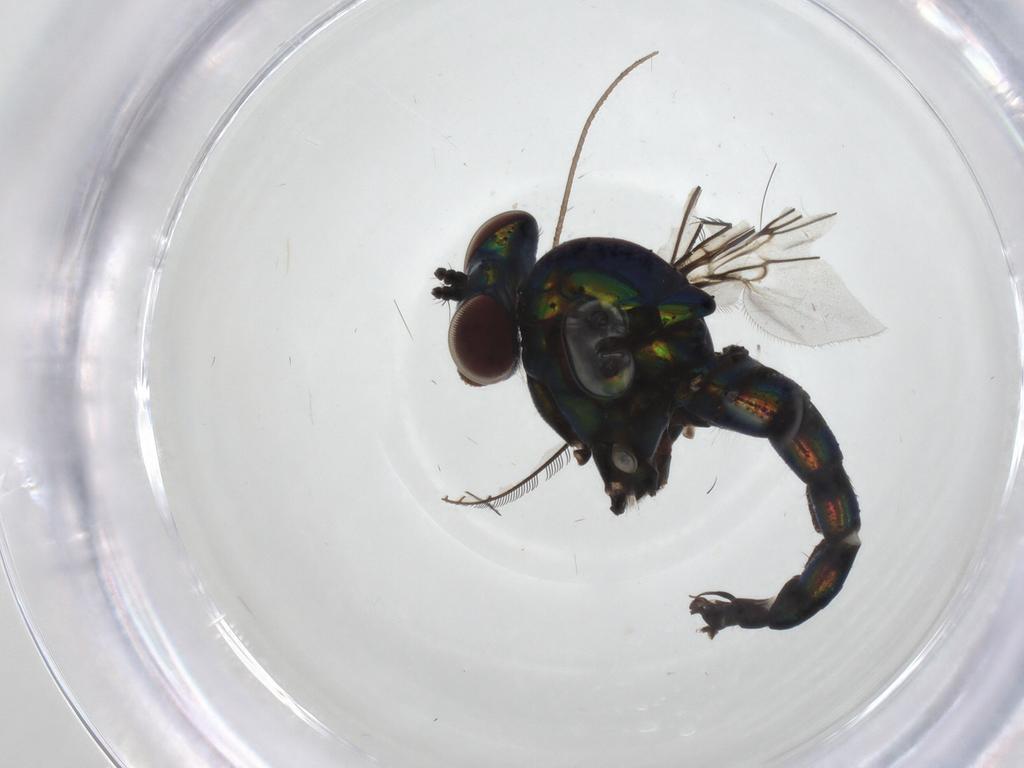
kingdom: Animalia
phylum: Arthropoda
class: Insecta
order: Diptera
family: Dolichopodidae
